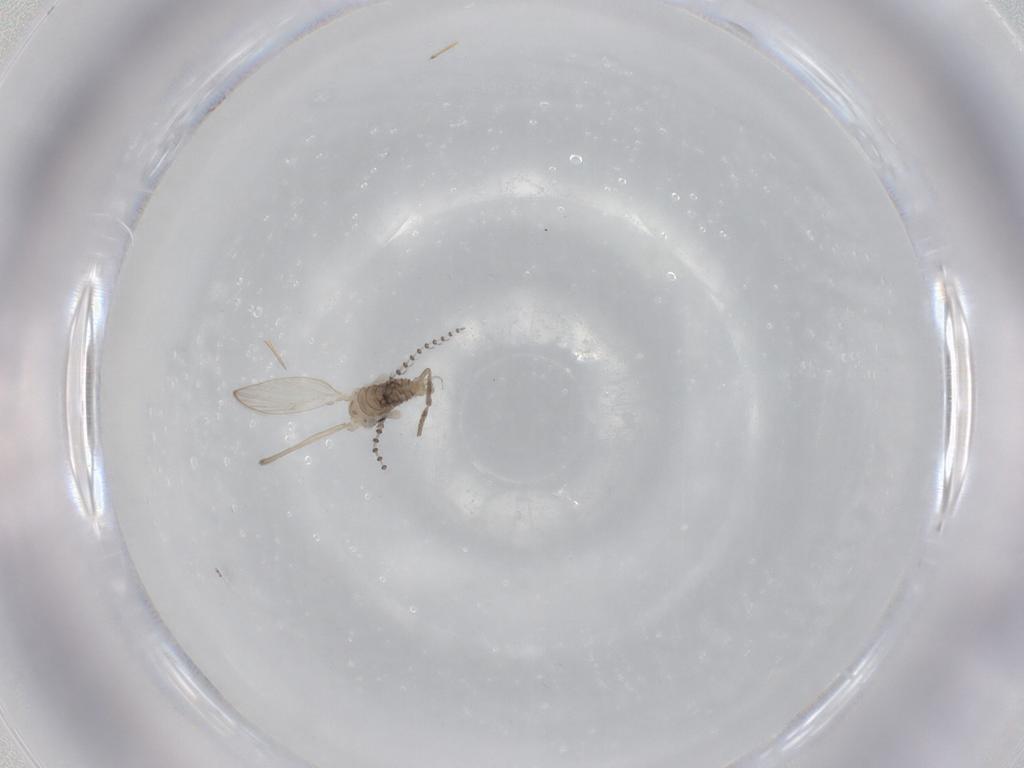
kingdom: Animalia
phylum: Arthropoda
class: Insecta
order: Diptera
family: Psychodidae
